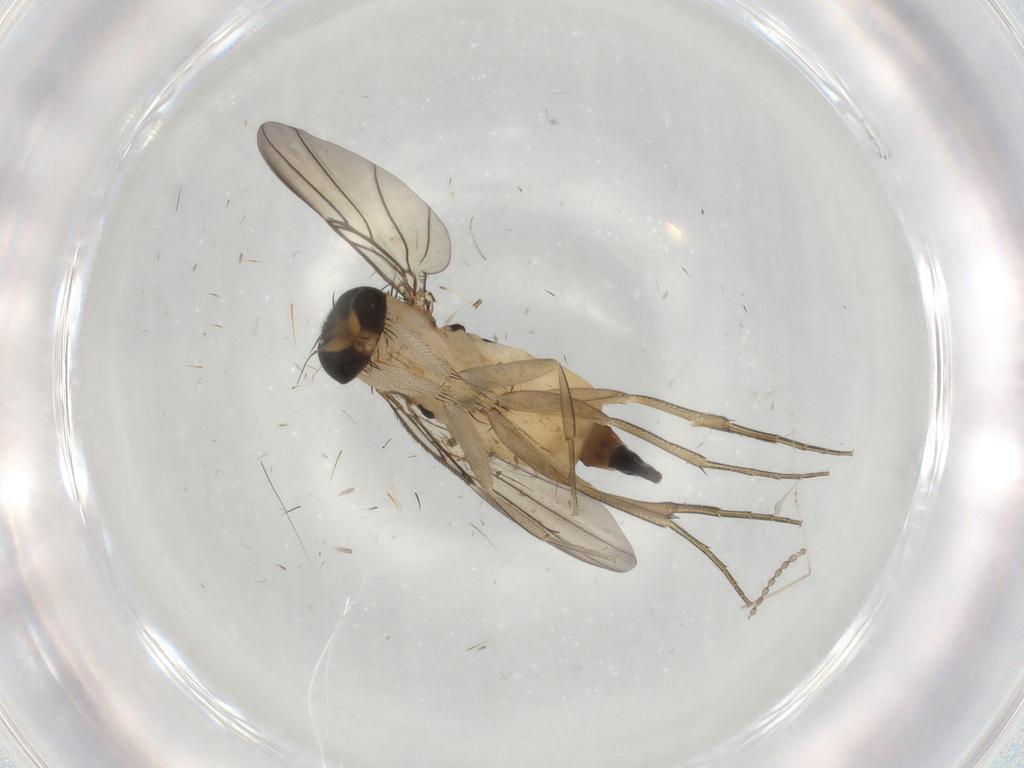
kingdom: Animalia
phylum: Arthropoda
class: Insecta
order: Diptera
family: Phoridae
